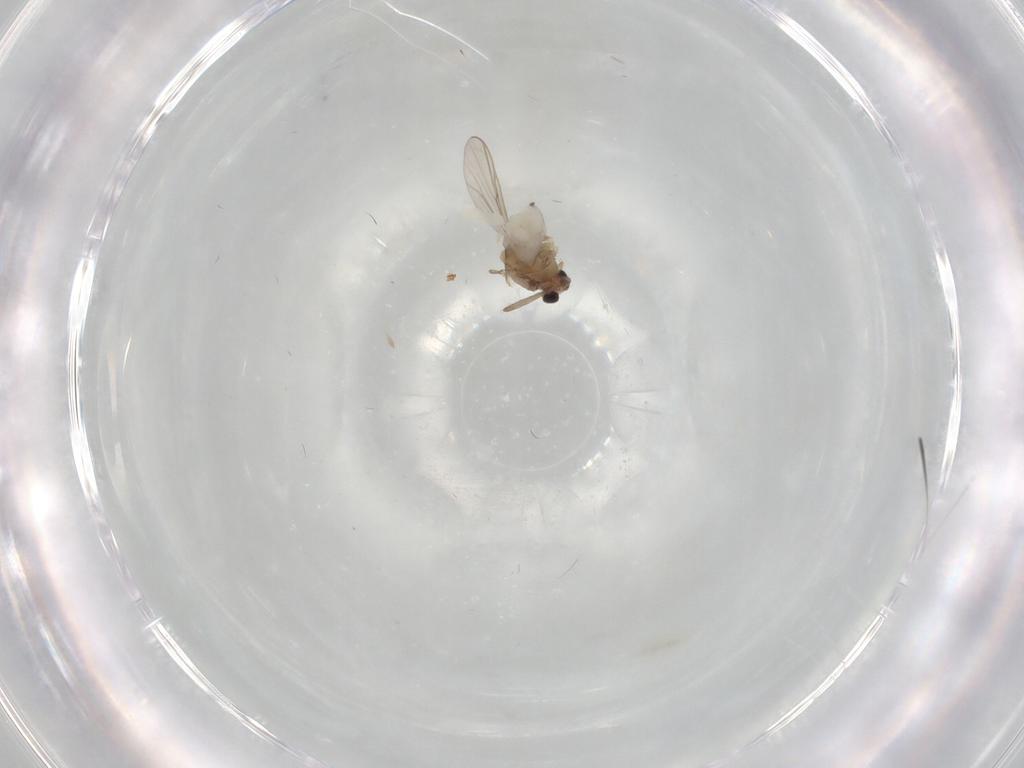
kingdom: Animalia
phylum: Arthropoda
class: Insecta
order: Diptera
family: Chironomidae
